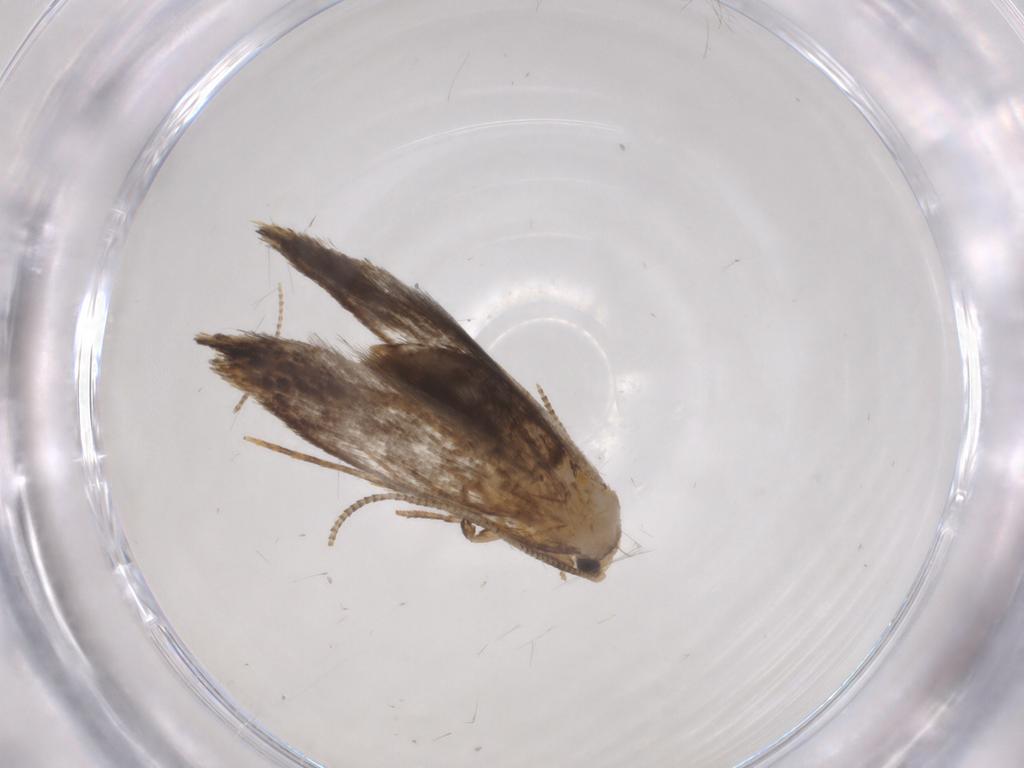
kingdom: Animalia
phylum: Arthropoda
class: Insecta
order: Lepidoptera
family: Tineidae
